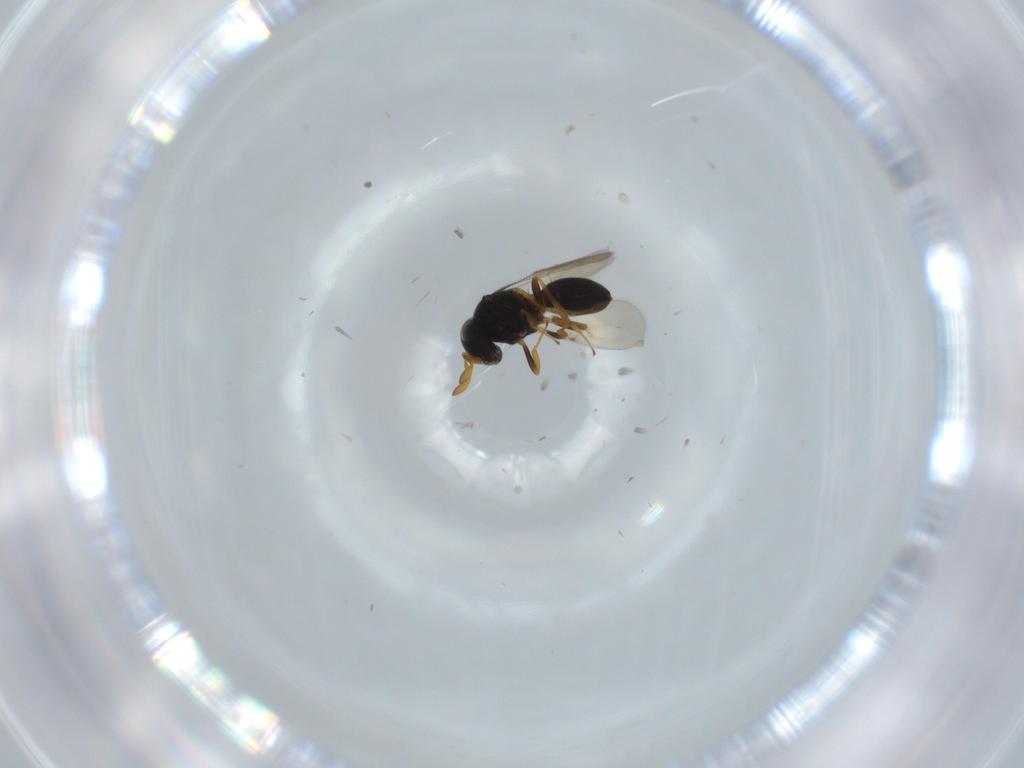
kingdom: Animalia
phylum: Arthropoda
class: Insecta
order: Hymenoptera
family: Scelionidae
